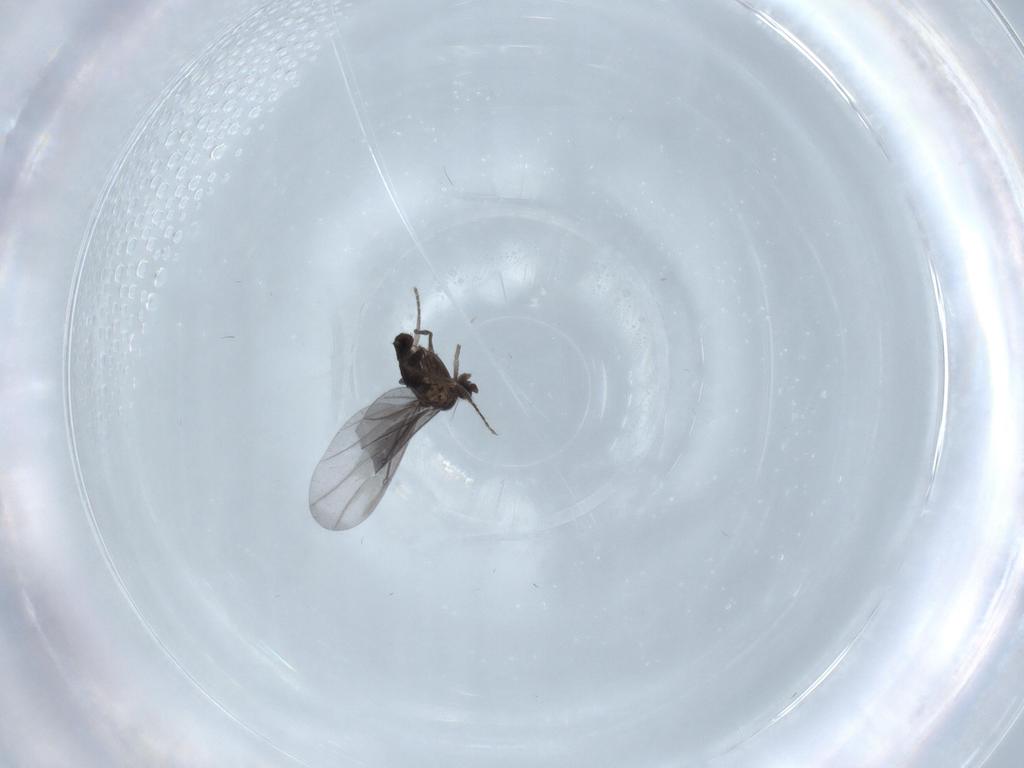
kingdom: Animalia
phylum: Arthropoda
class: Insecta
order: Diptera
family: Phoridae
